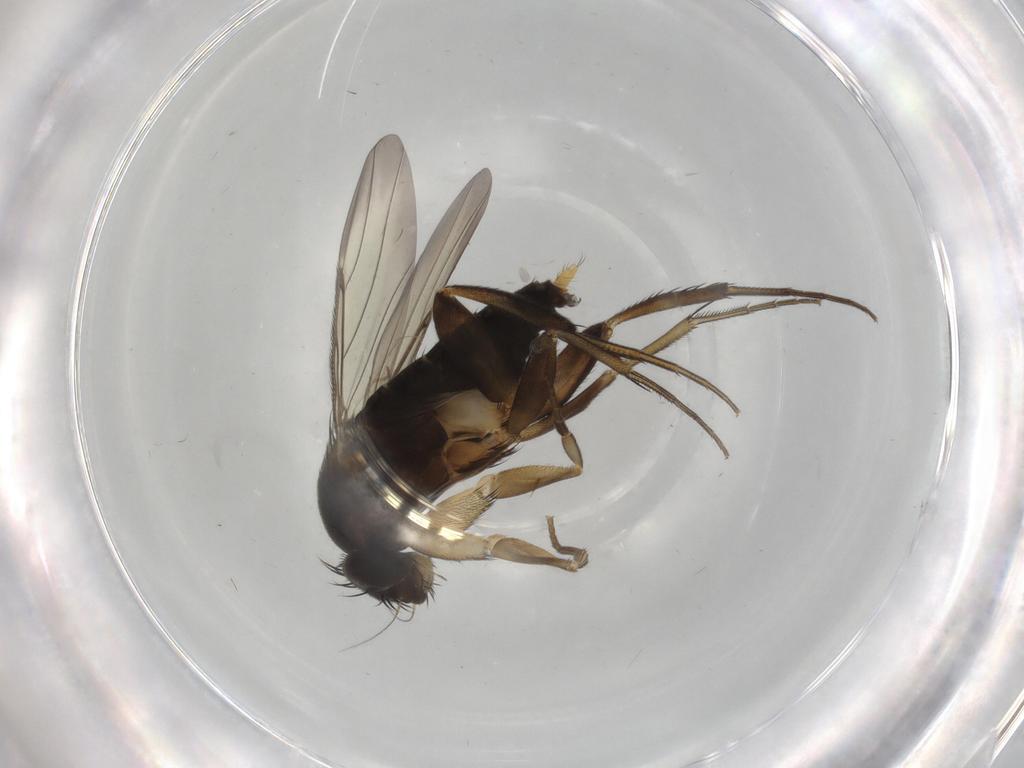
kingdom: Animalia
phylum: Arthropoda
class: Insecta
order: Diptera
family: Phoridae
